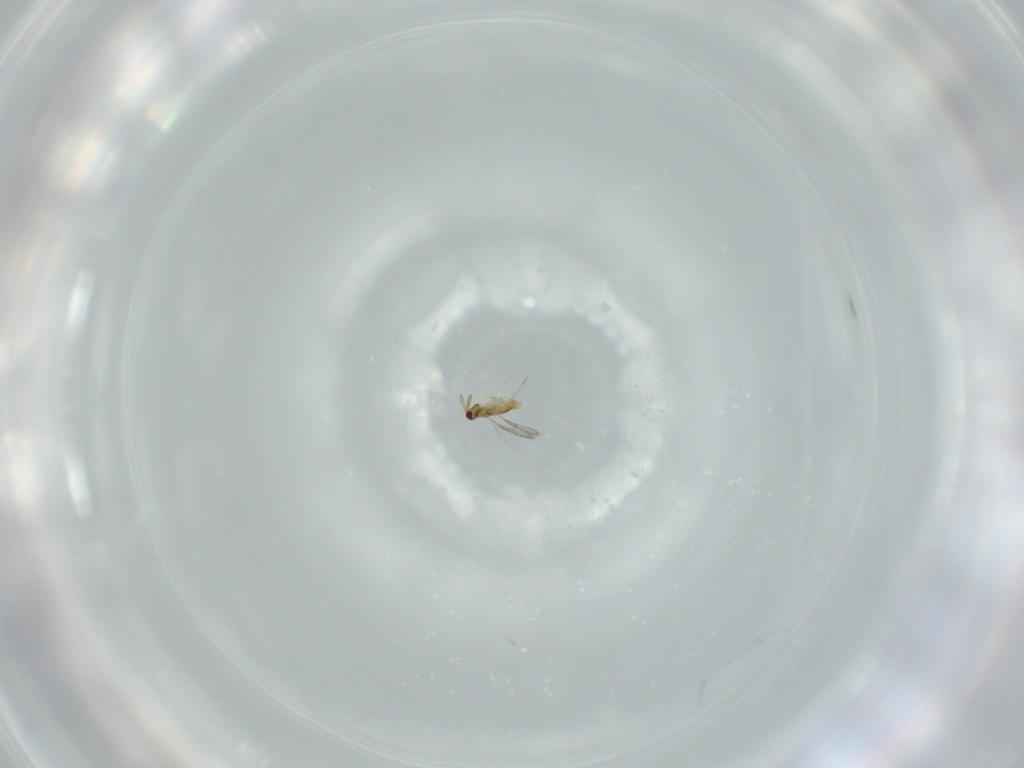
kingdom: Animalia
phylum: Arthropoda
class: Insecta
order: Hymenoptera
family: Aphelinidae
